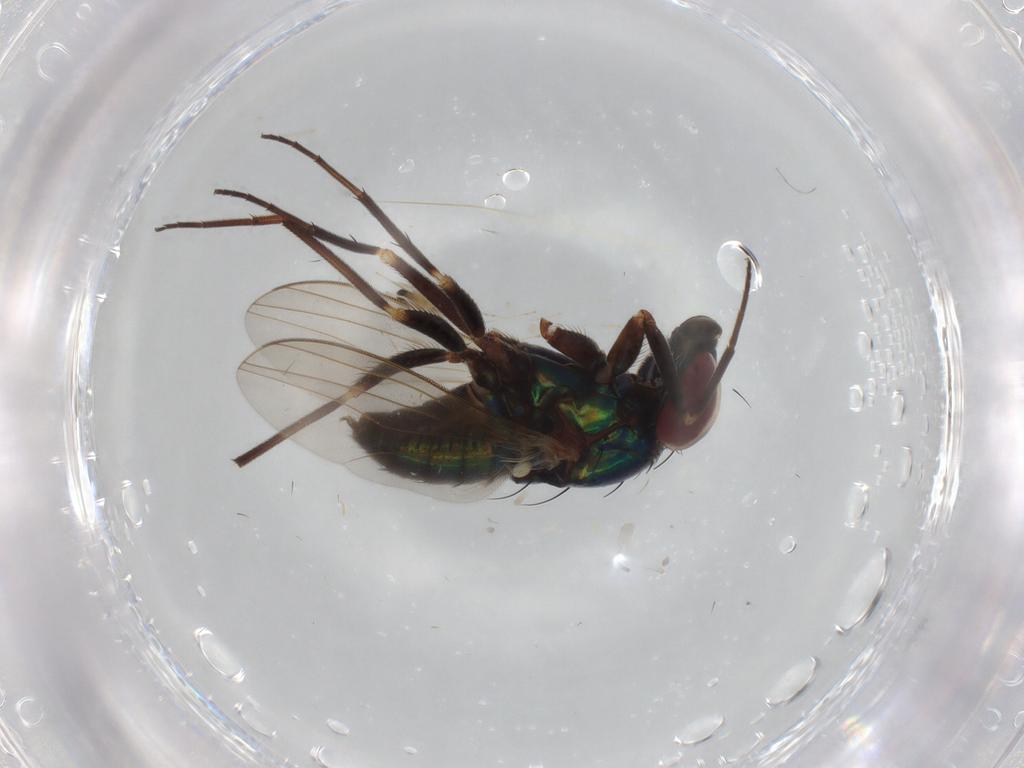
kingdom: Animalia
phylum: Arthropoda
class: Insecta
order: Diptera
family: Dolichopodidae
